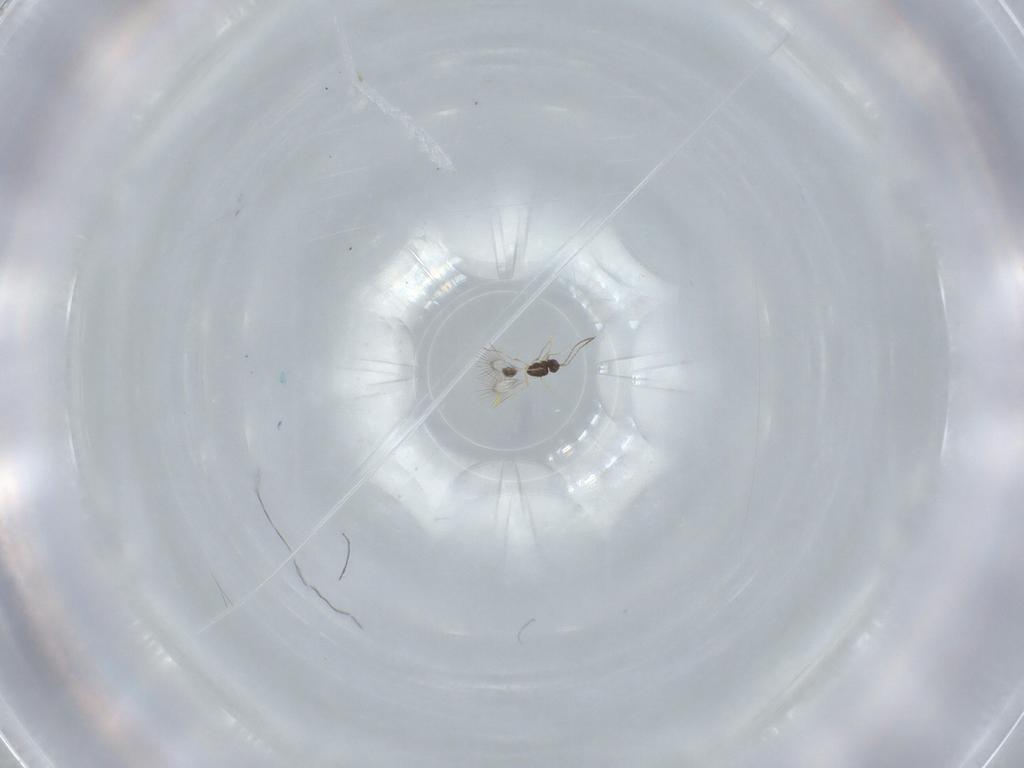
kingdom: Animalia
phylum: Arthropoda
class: Insecta
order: Hymenoptera
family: Mymarommatidae
